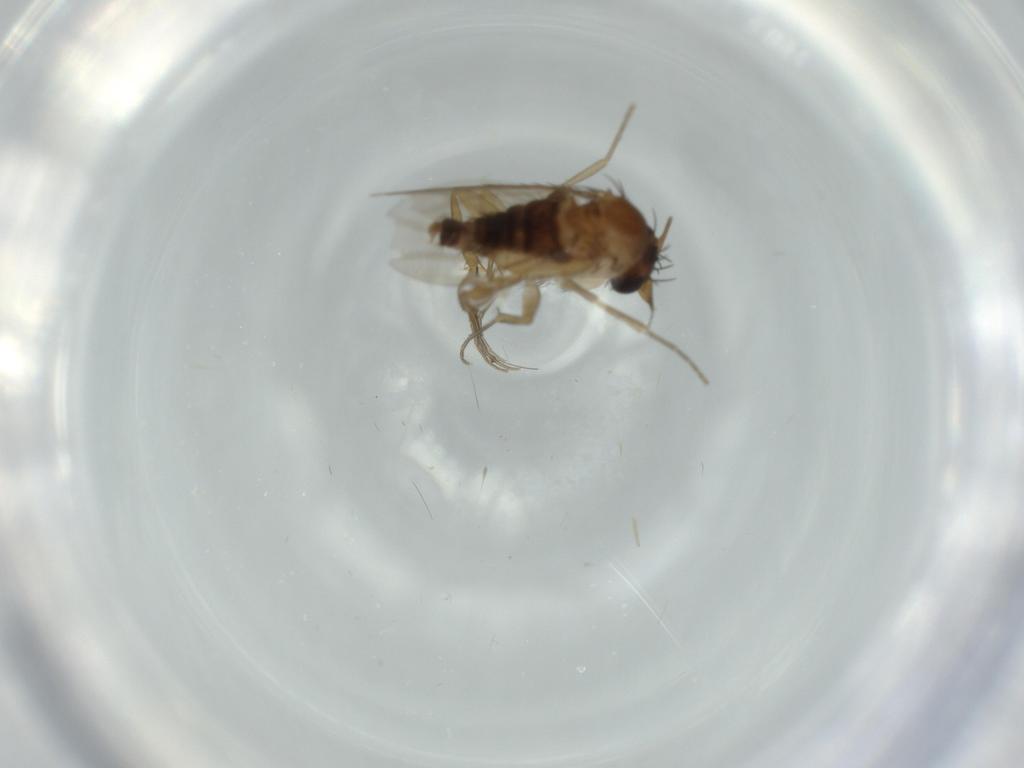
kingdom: Animalia
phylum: Arthropoda
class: Insecta
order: Diptera
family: Phoridae
